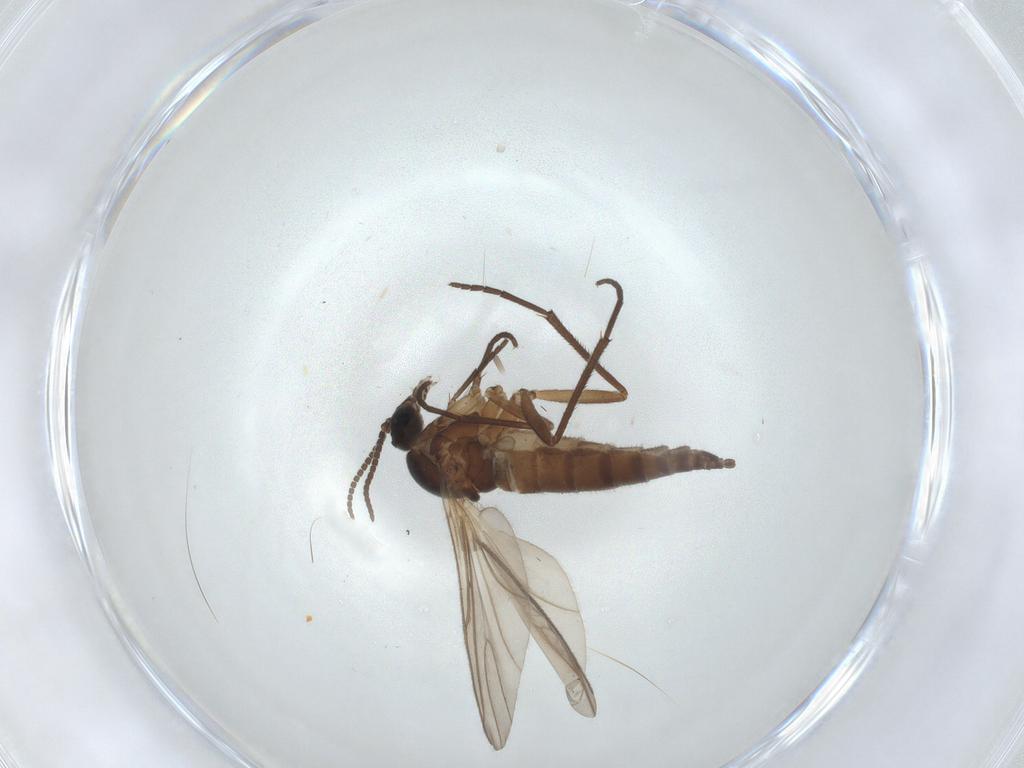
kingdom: Animalia
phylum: Arthropoda
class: Insecta
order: Diptera
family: Sciaridae
